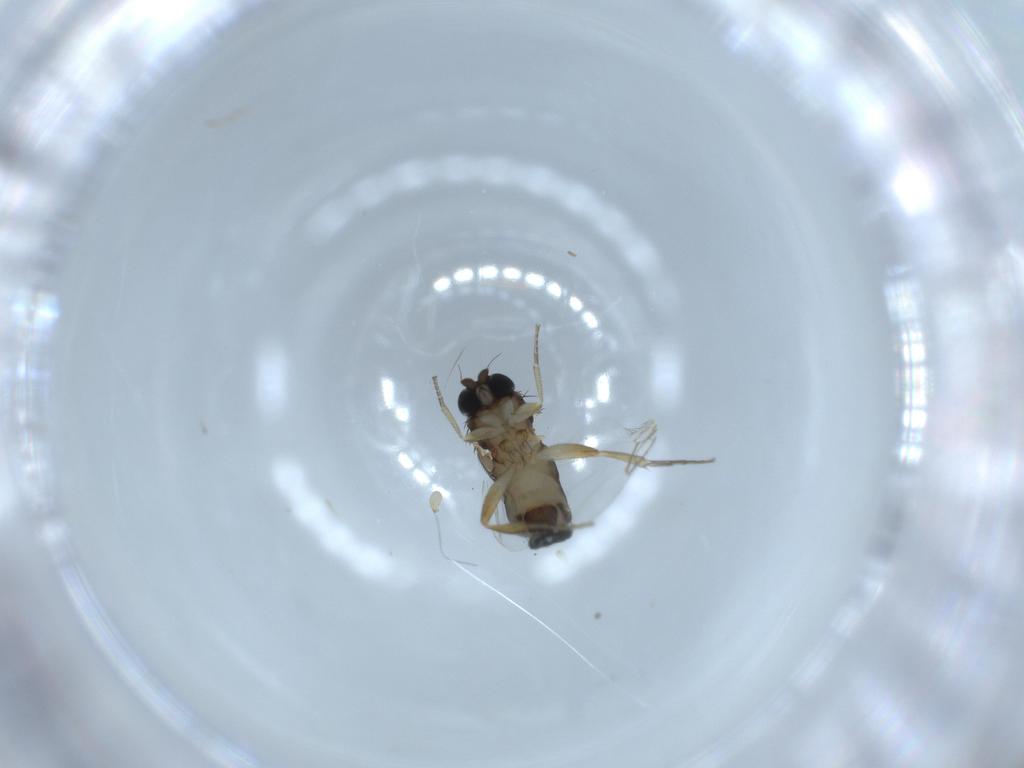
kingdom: Animalia
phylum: Arthropoda
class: Insecta
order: Diptera
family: Phoridae
